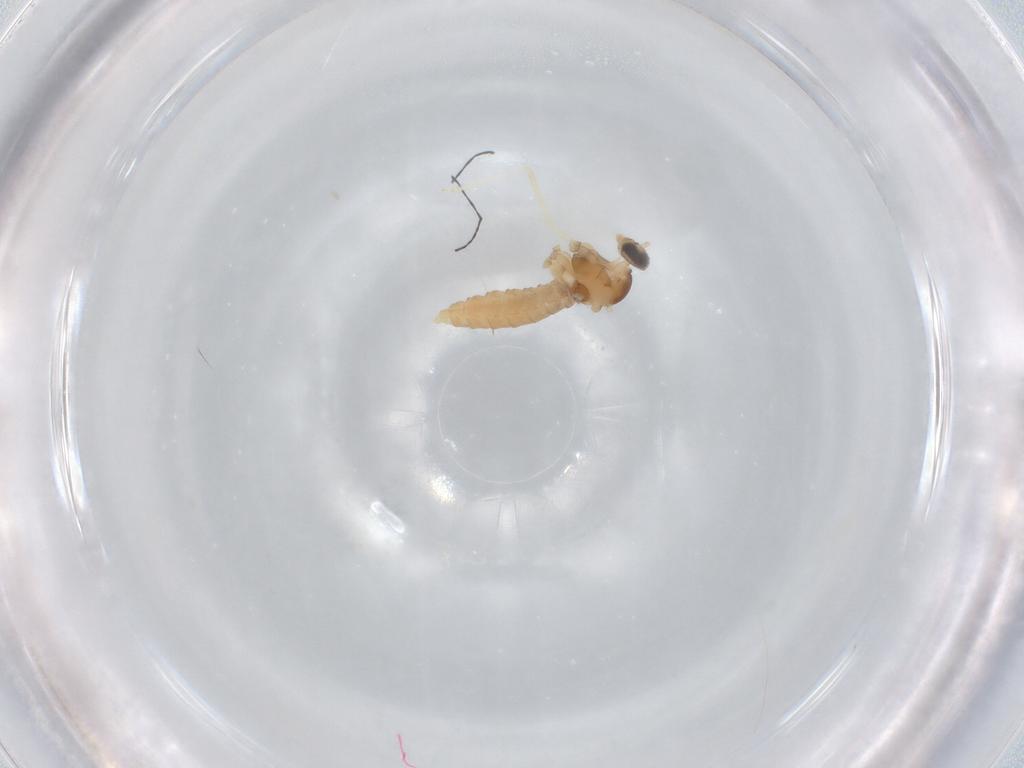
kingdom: Animalia
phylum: Arthropoda
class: Insecta
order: Diptera
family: Cecidomyiidae
